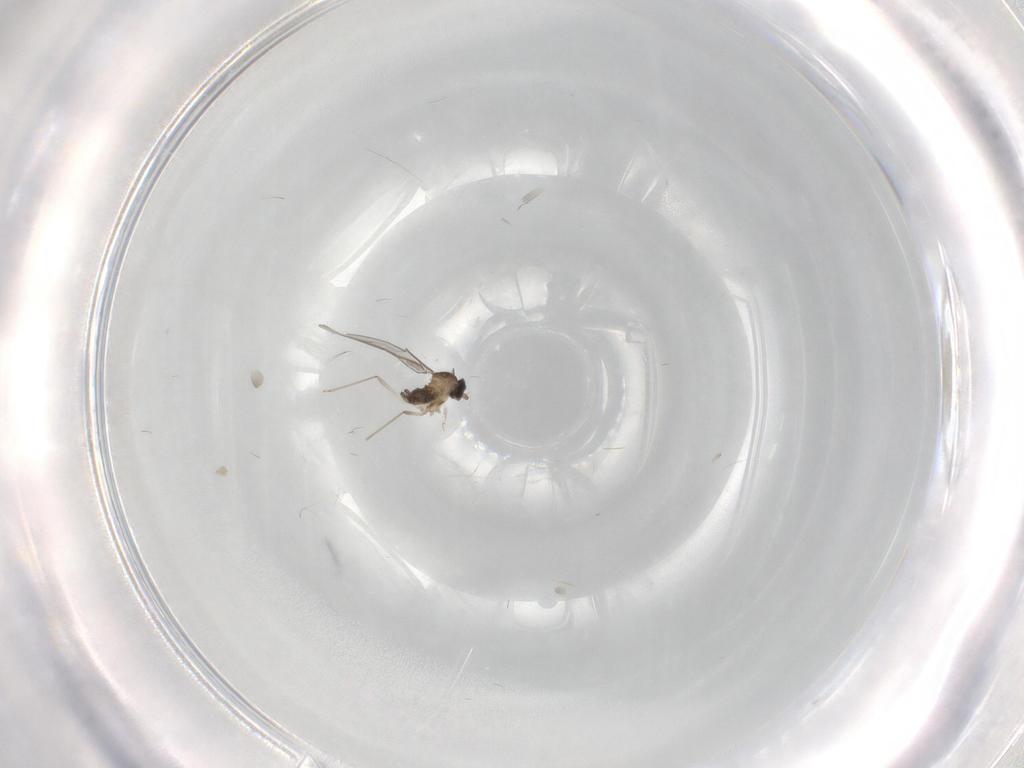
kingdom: Animalia
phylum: Arthropoda
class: Insecta
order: Diptera
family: Cecidomyiidae
